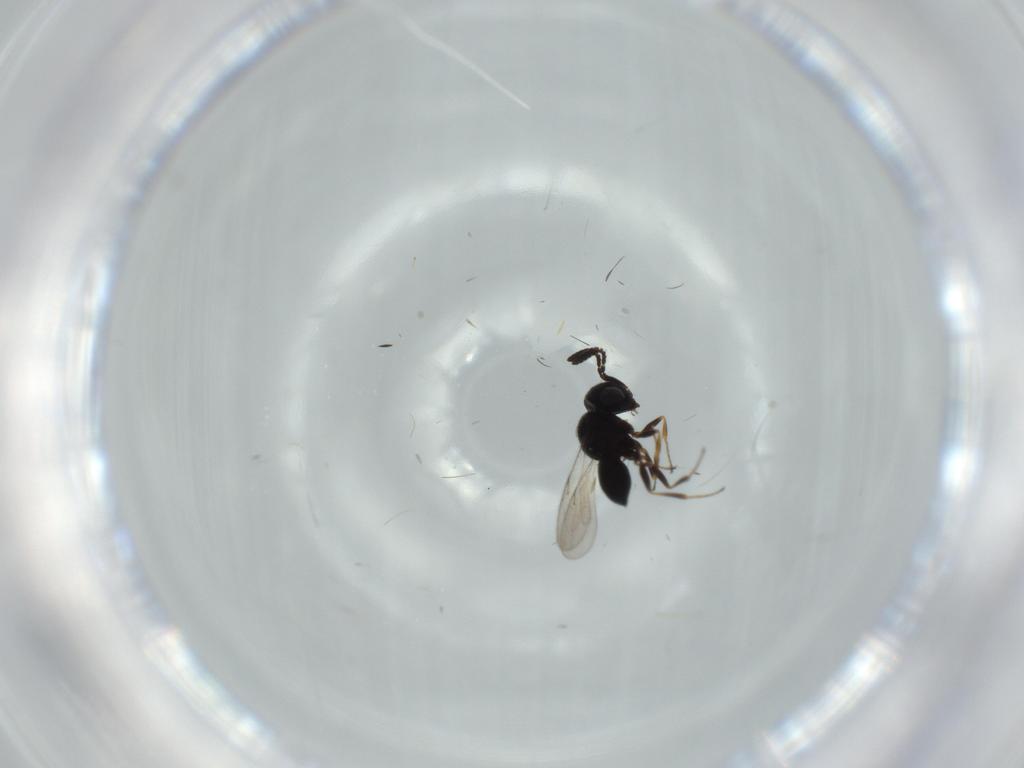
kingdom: Animalia
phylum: Arthropoda
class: Insecta
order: Hymenoptera
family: Scelionidae
